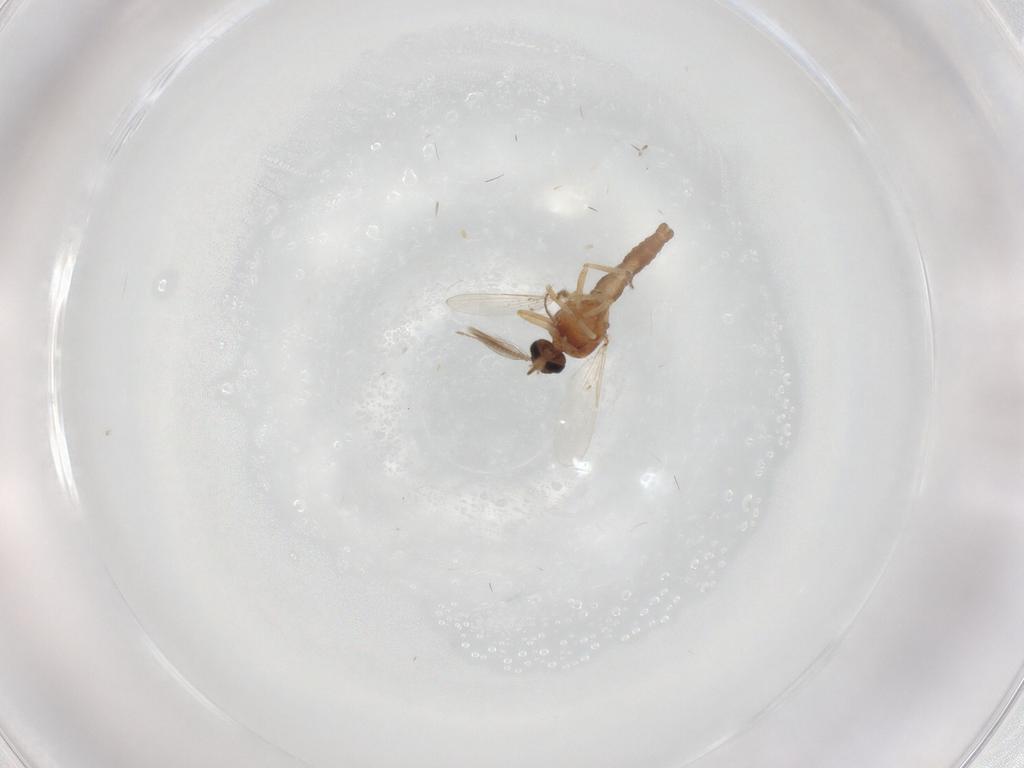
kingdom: Animalia
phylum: Arthropoda
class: Insecta
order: Diptera
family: Ceratopogonidae
